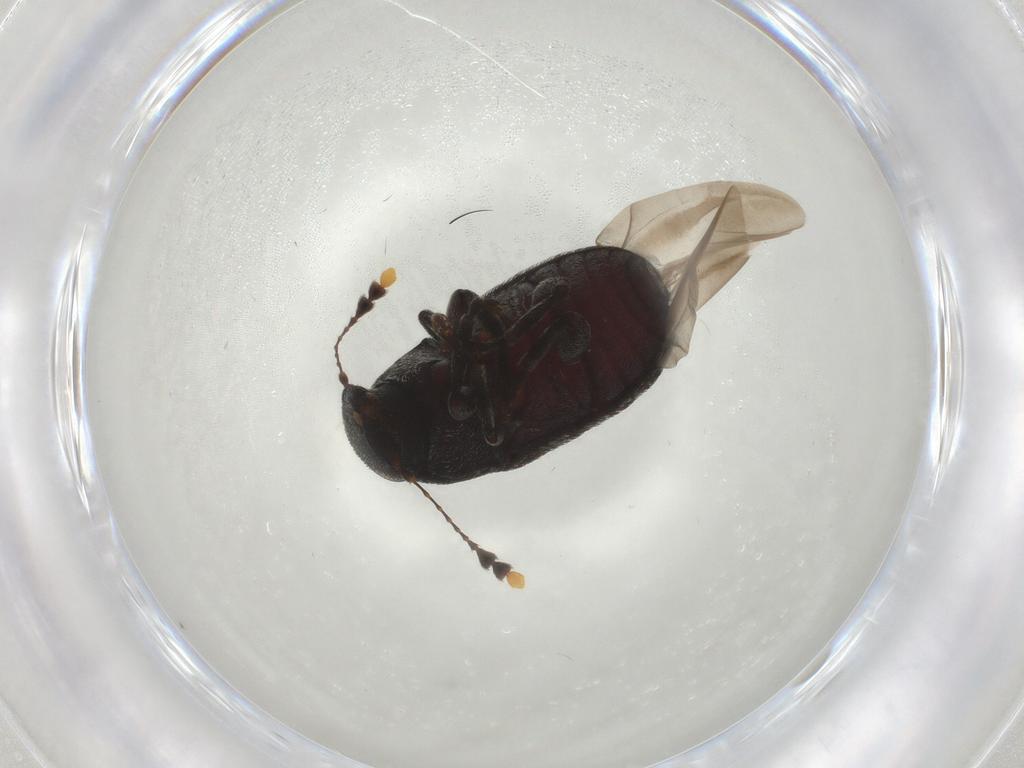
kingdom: Animalia
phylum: Arthropoda
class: Insecta
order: Coleoptera
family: Anthribidae
